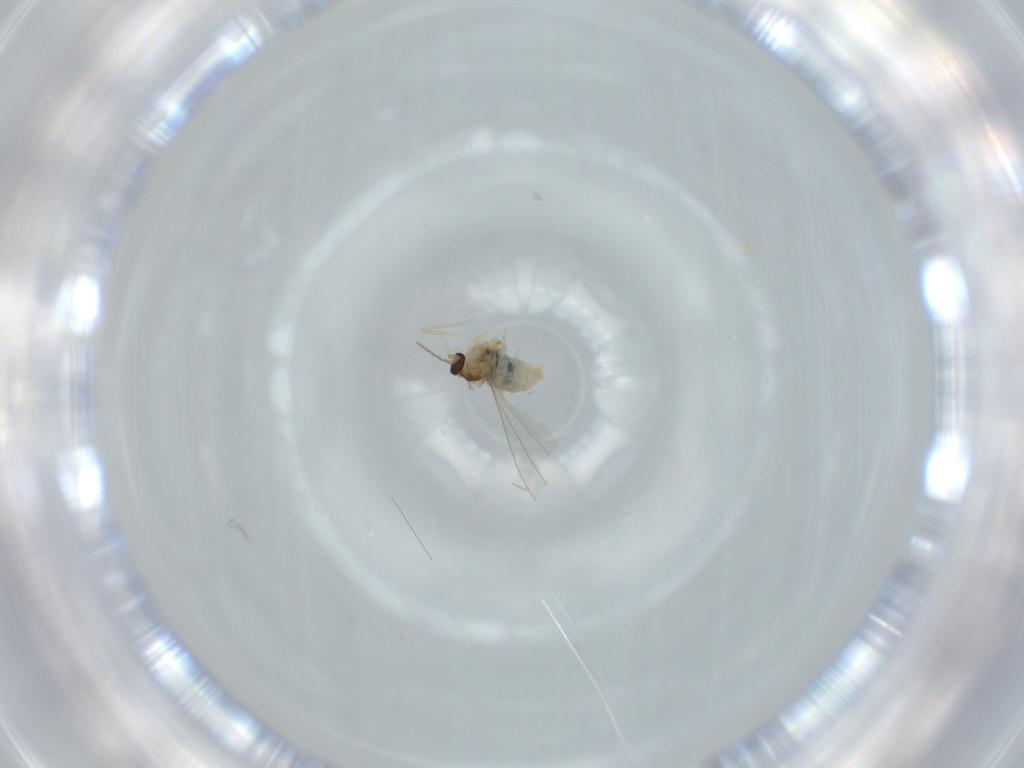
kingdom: Animalia
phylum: Arthropoda
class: Insecta
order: Diptera
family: Cecidomyiidae
